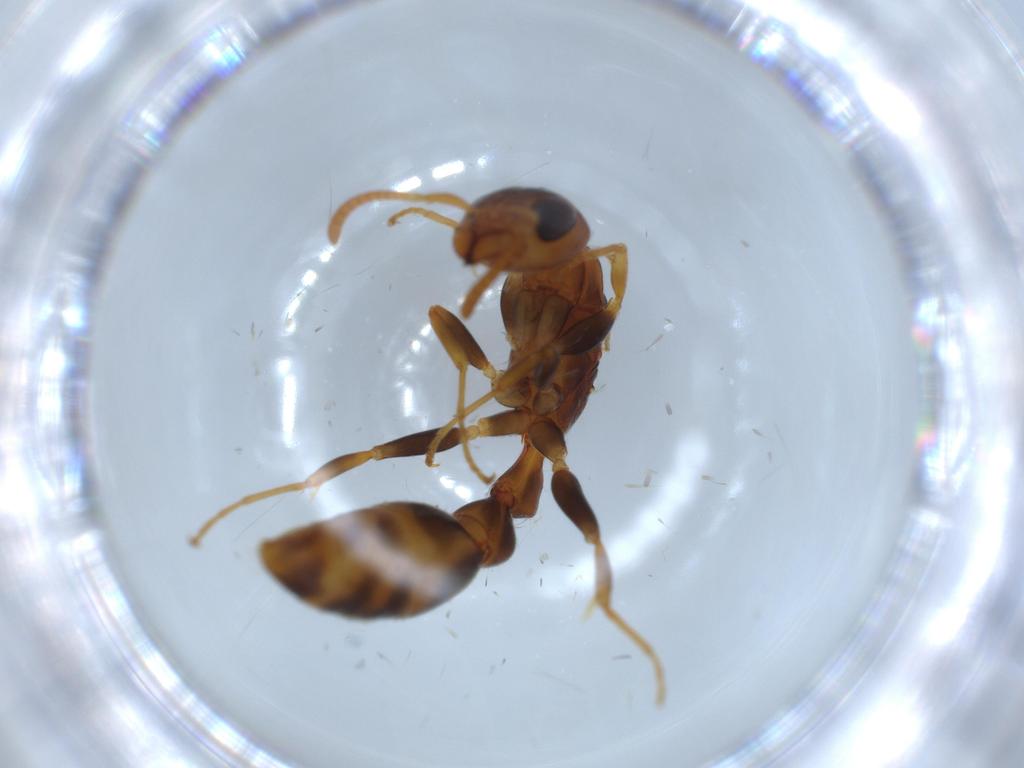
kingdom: Animalia
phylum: Arthropoda
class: Insecta
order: Hymenoptera
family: Formicidae
